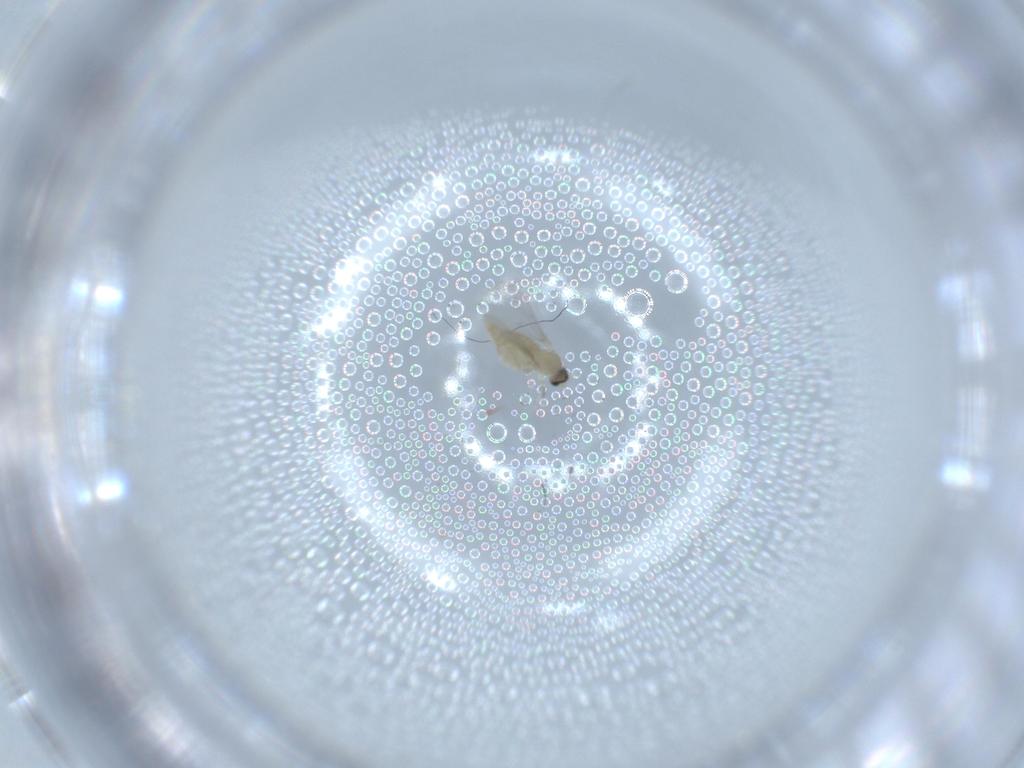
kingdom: Animalia
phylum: Arthropoda
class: Insecta
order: Diptera
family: Cecidomyiidae
